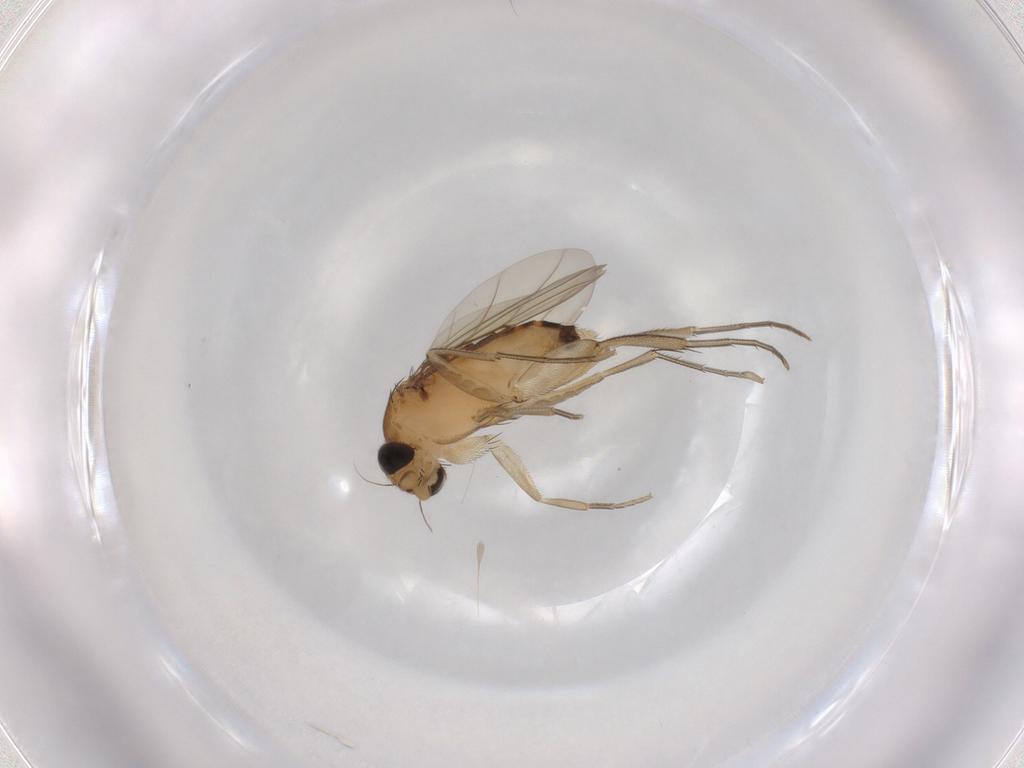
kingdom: Animalia
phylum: Arthropoda
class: Insecta
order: Diptera
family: Phoridae
